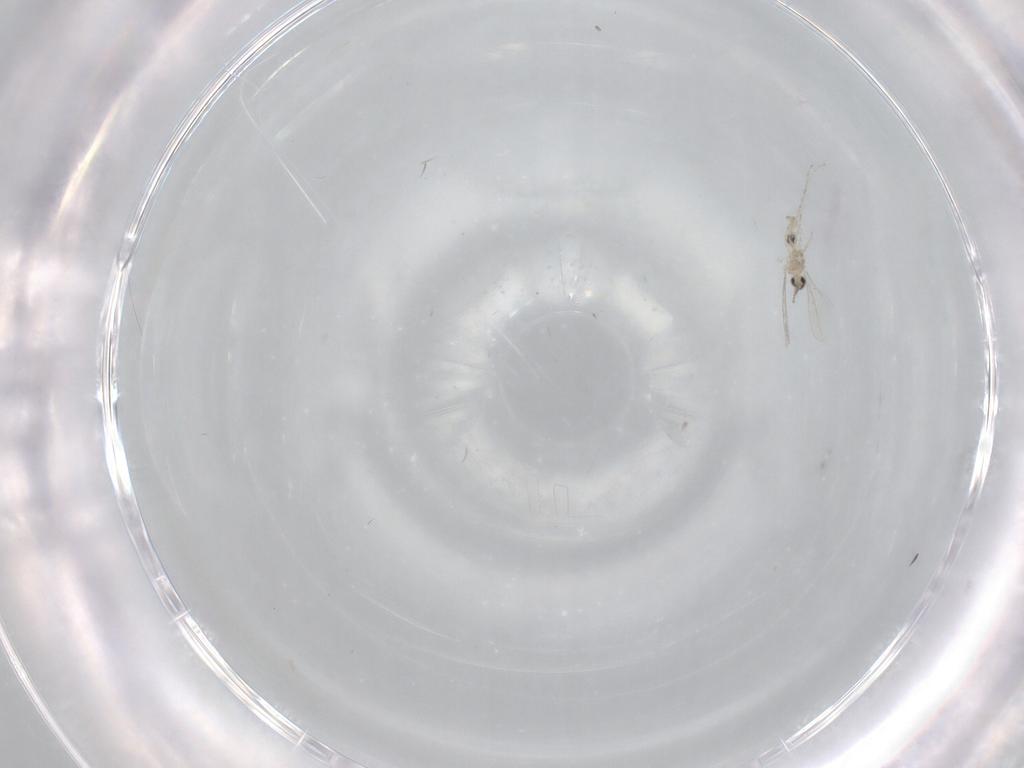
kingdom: Animalia
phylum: Arthropoda
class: Insecta
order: Diptera
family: Cecidomyiidae
